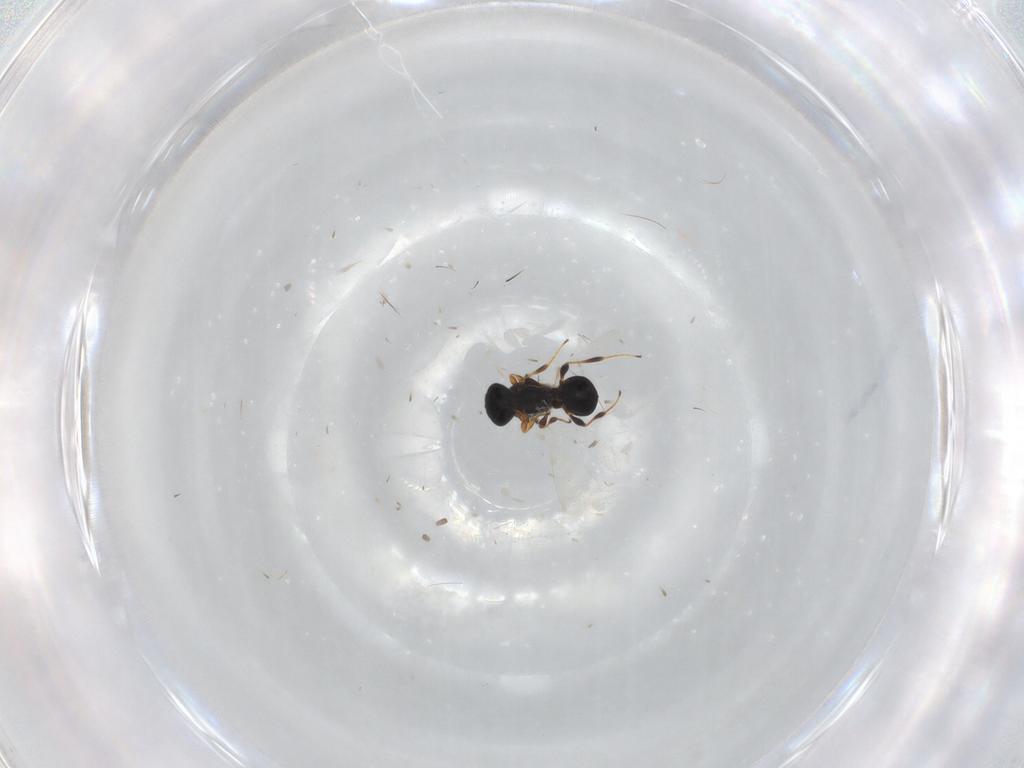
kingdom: Animalia
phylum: Arthropoda
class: Insecta
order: Hymenoptera
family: Platygastridae
